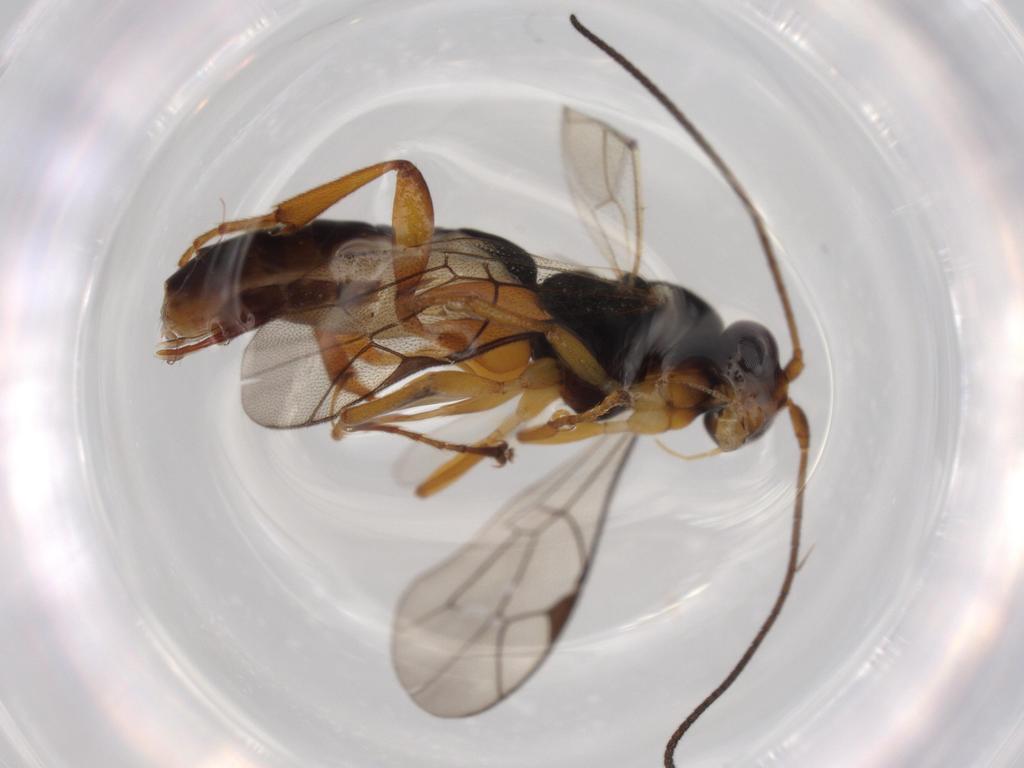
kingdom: Animalia
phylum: Arthropoda
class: Insecta
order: Hymenoptera
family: Diapriidae
